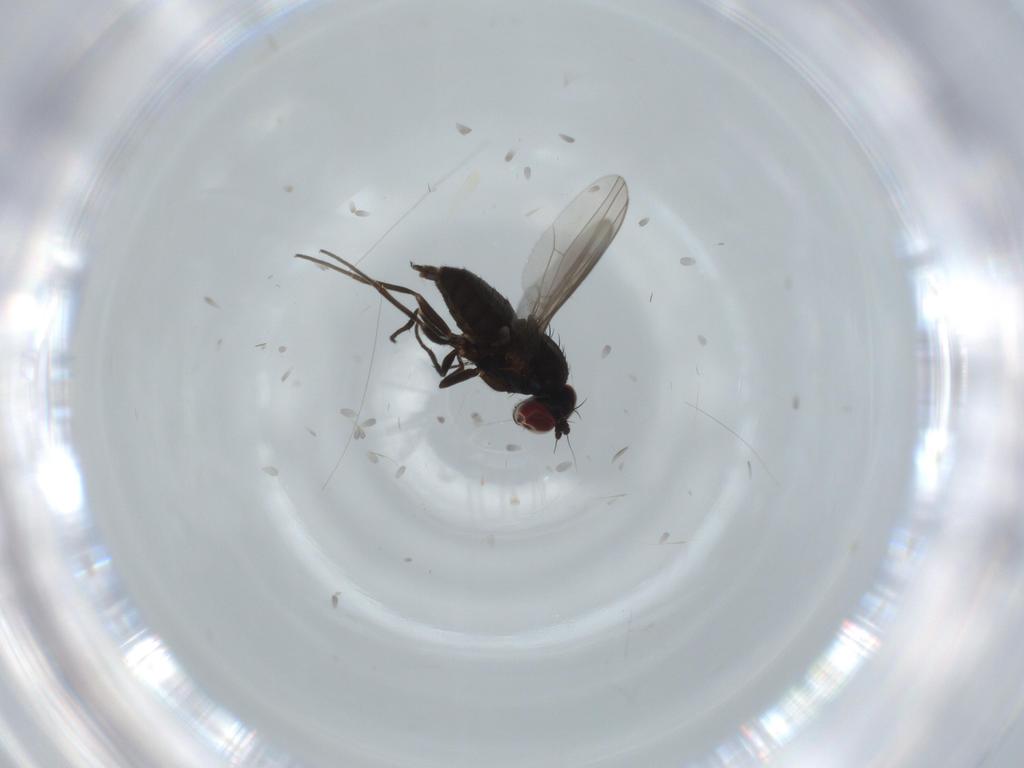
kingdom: Animalia
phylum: Arthropoda
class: Insecta
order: Diptera
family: Dolichopodidae
